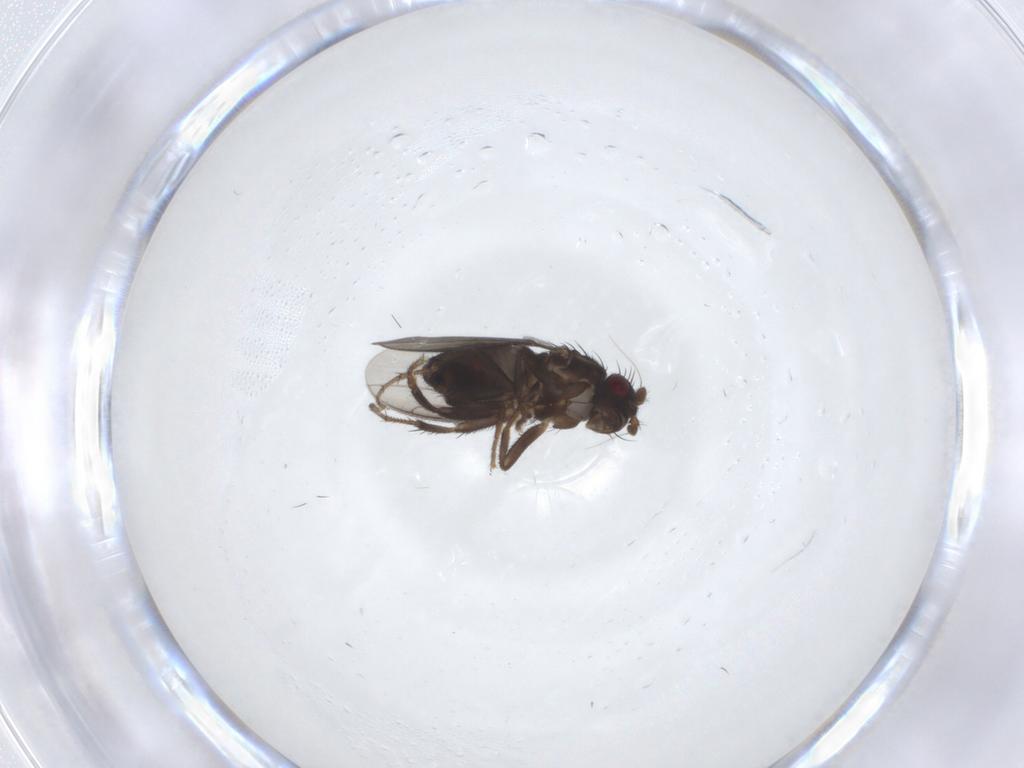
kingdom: Animalia
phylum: Arthropoda
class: Insecta
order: Diptera
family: Sphaeroceridae
